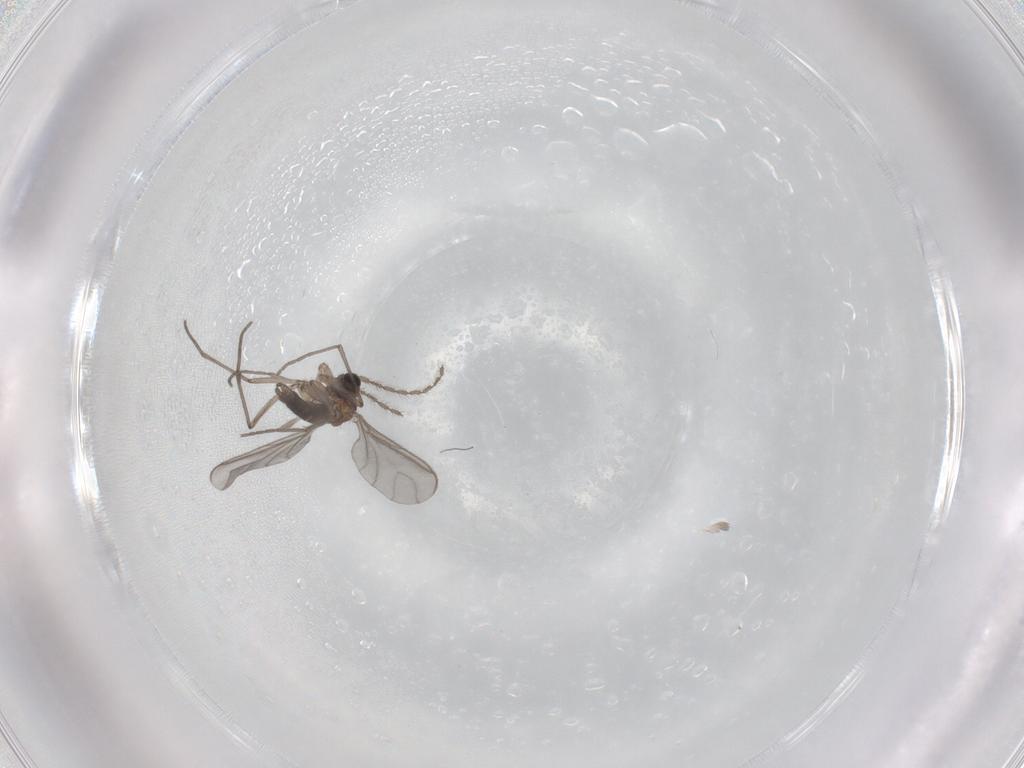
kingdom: Animalia
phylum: Arthropoda
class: Insecta
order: Diptera
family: Sciaridae
